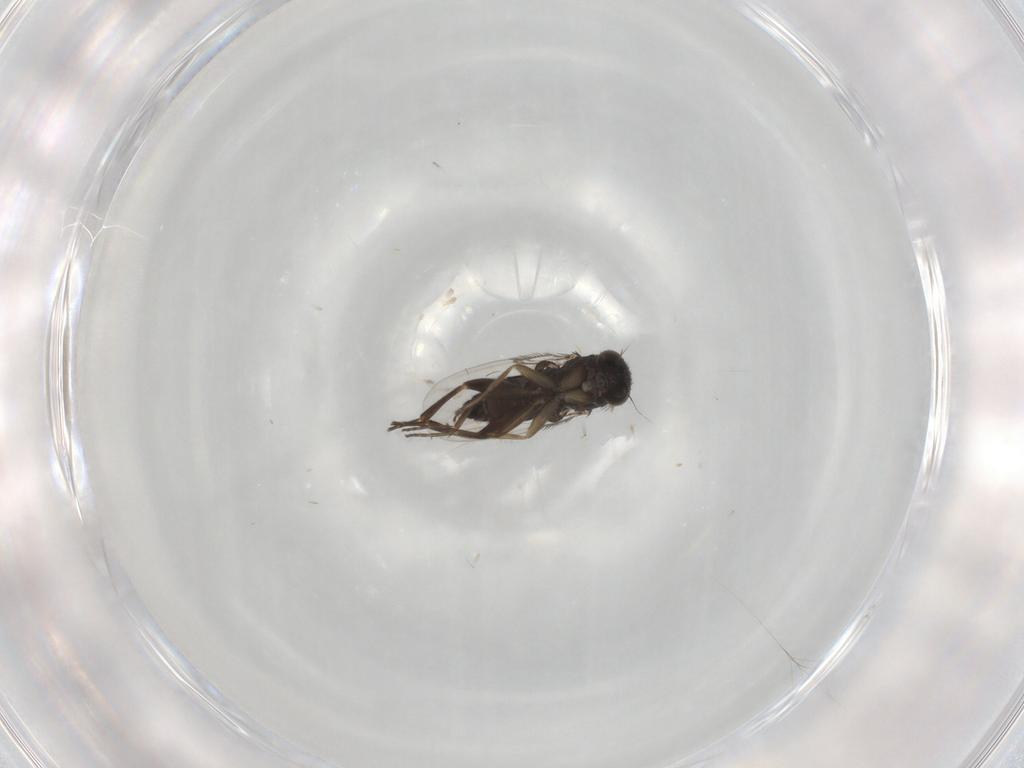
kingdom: Animalia
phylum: Arthropoda
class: Insecta
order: Diptera
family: Phoridae
